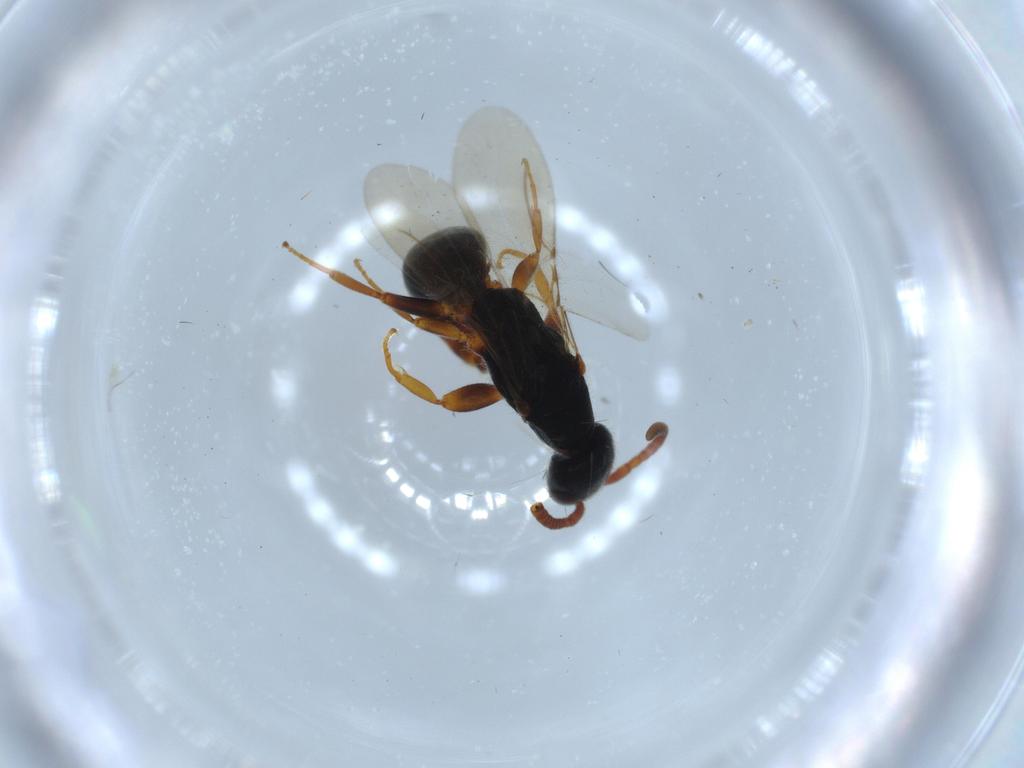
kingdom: Animalia
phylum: Arthropoda
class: Insecta
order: Hymenoptera
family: Bethylidae
